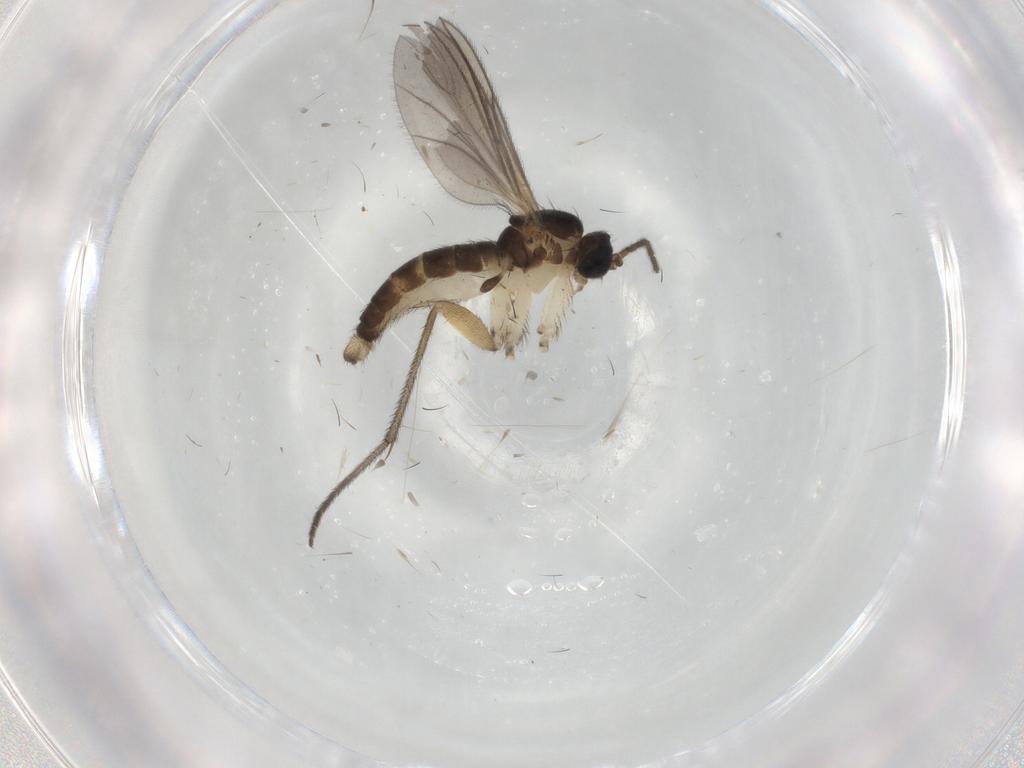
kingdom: Animalia
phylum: Arthropoda
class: Insecta
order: Diptera
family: Sciaridae
